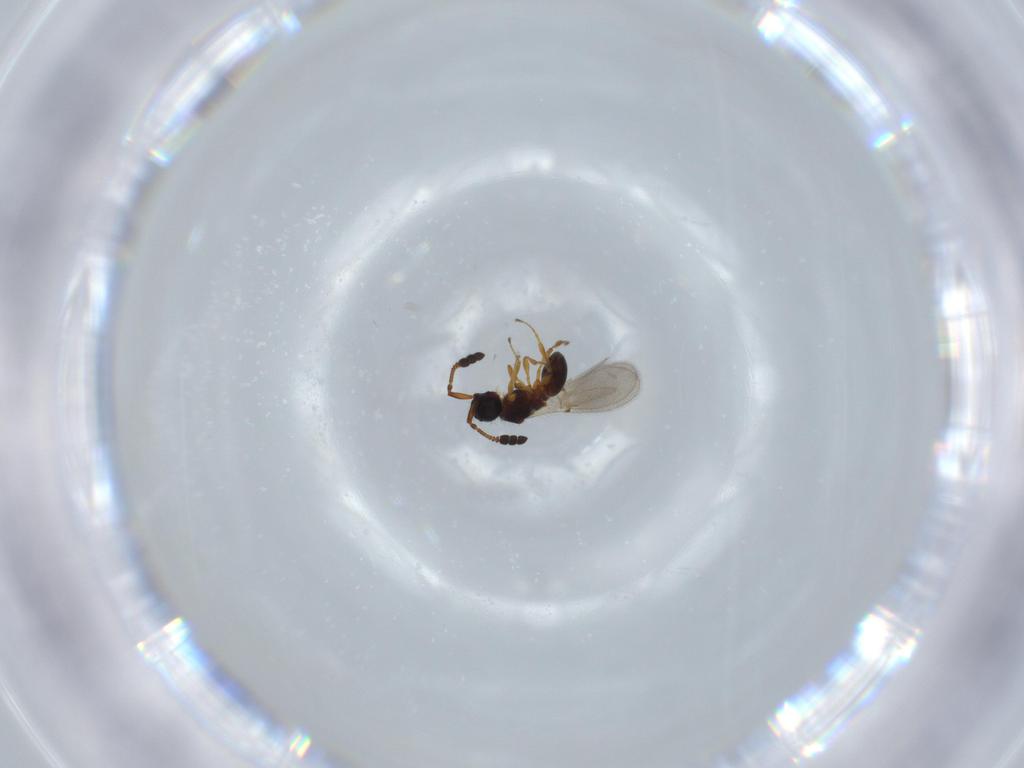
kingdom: Animalia
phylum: Arthropoda
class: Insecta
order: Hymenoptera
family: Diapriidae
